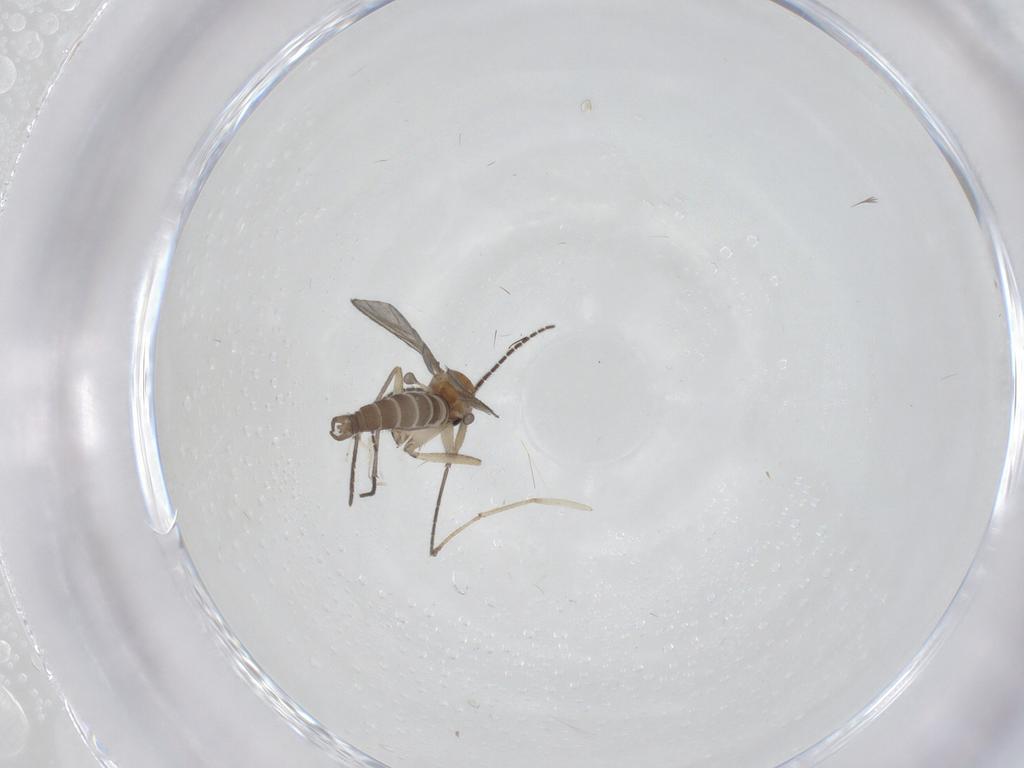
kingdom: Animalia
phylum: Arthropoda
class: Insecta
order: Diptera
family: Sciaridae
